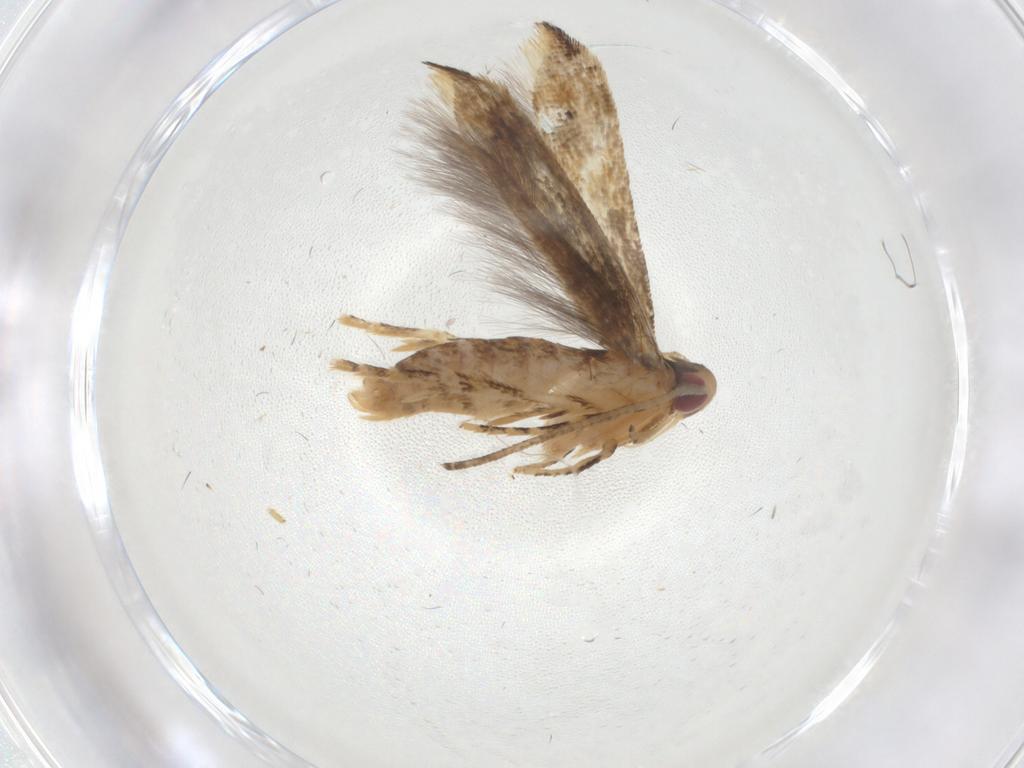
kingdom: Animalia
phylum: Arthropoda
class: Insecta
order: Lepidoptera
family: Momphidae
